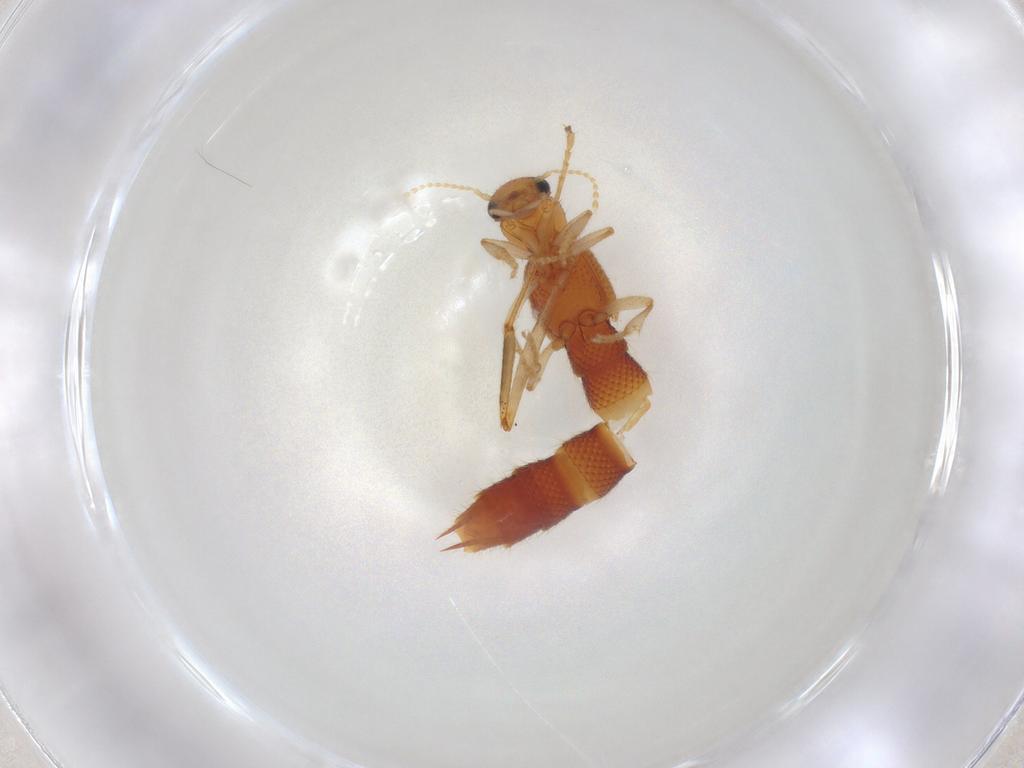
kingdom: Animalia
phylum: Arthropoda
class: Insecta
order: Coleoptera
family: Staphylinidae
